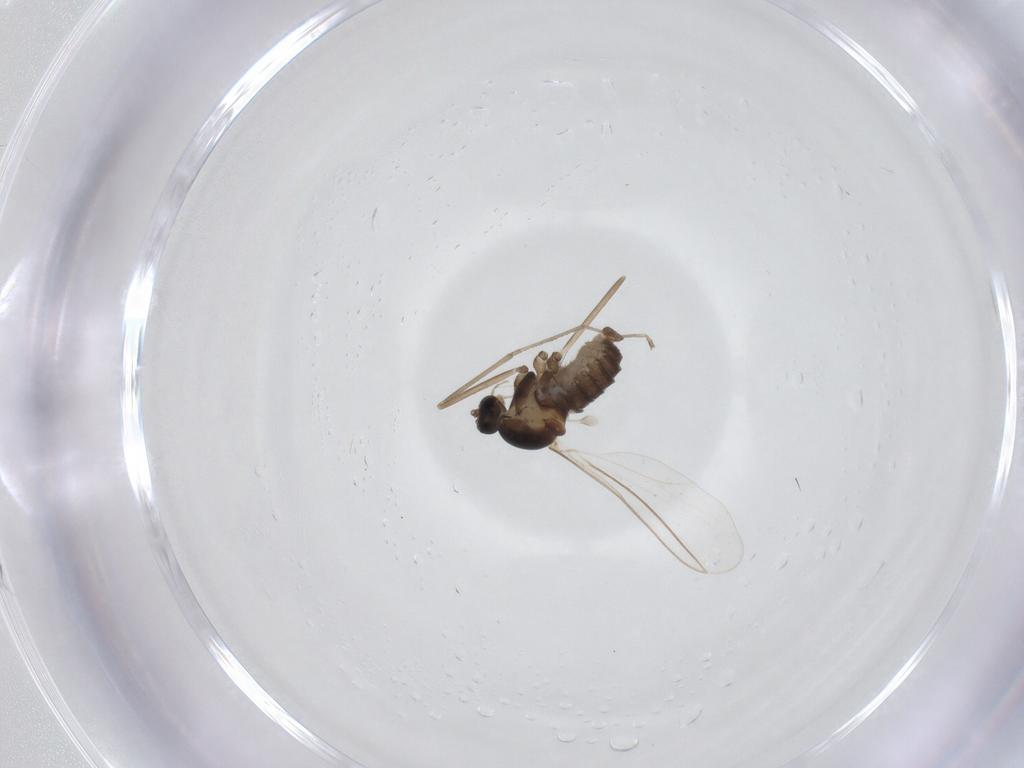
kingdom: Animalia
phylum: Arthropoda
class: Insecta
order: Diptera
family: Cecidomyiidae
